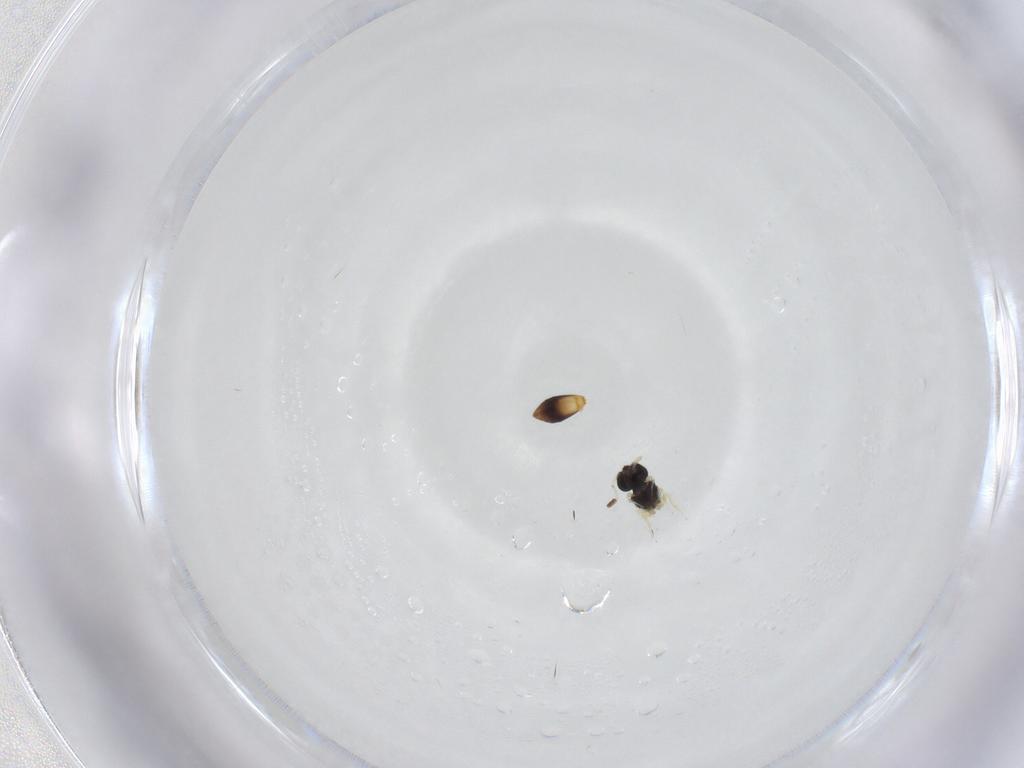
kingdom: Animalia
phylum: Arthropoda
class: Insecta
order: Hymenoptera
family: Scelionidae
